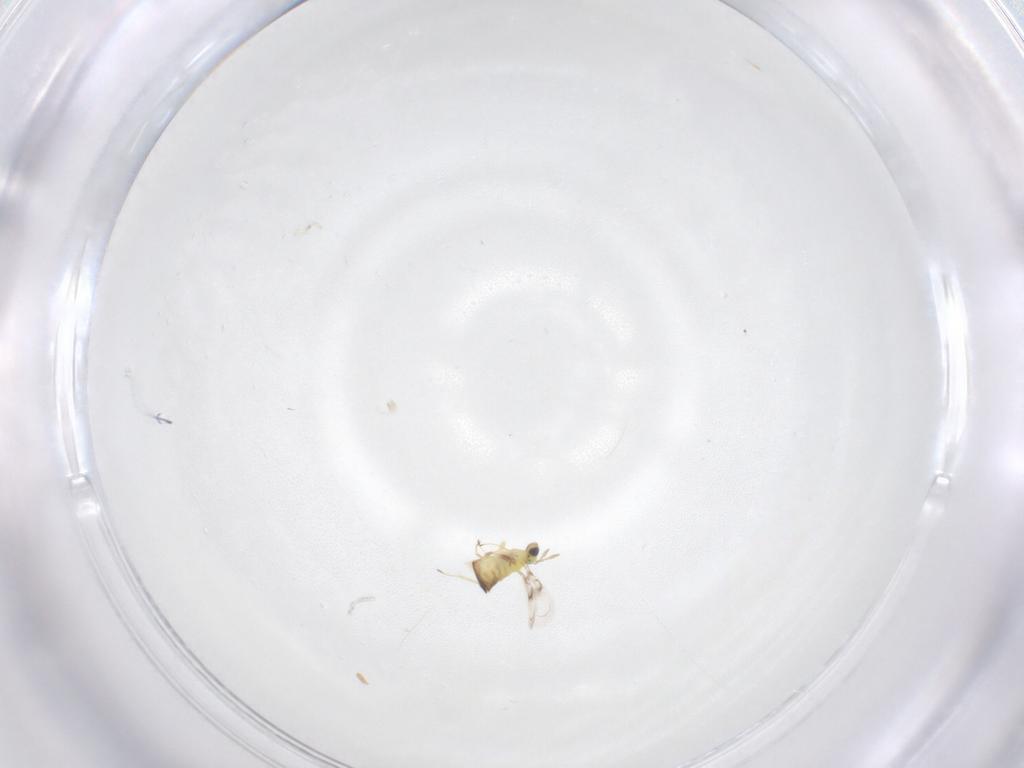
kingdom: Animalia
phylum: Arthropoda
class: Insecta
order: Hymenoptera
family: Trichogrammatidae
